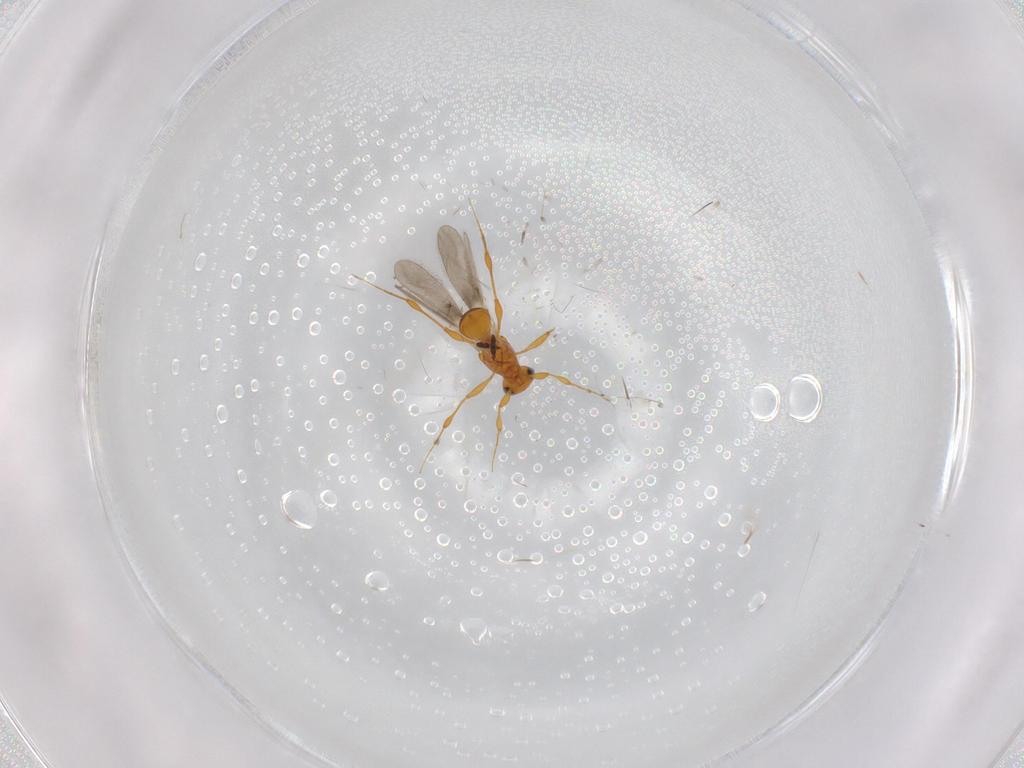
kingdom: Animalia
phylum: Arthropoda
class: Insecta
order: Hymenoptera
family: Platygastridae
